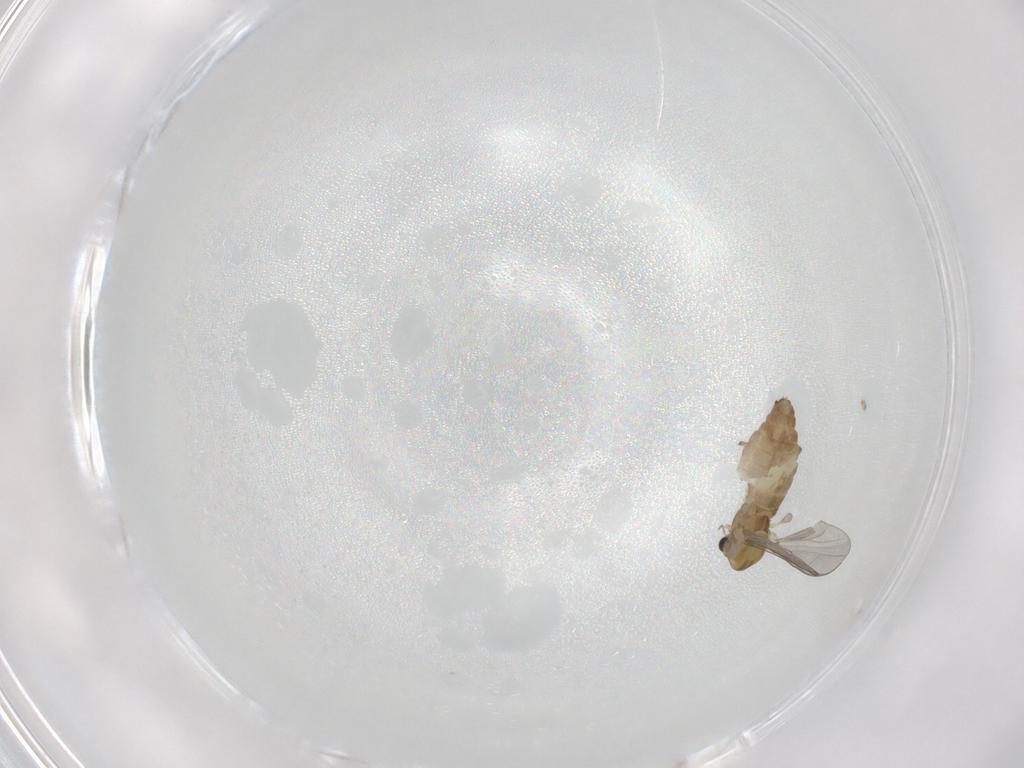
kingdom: Animalia
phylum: Arthropoda
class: Insecta
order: Diptera
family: Chironomidae
